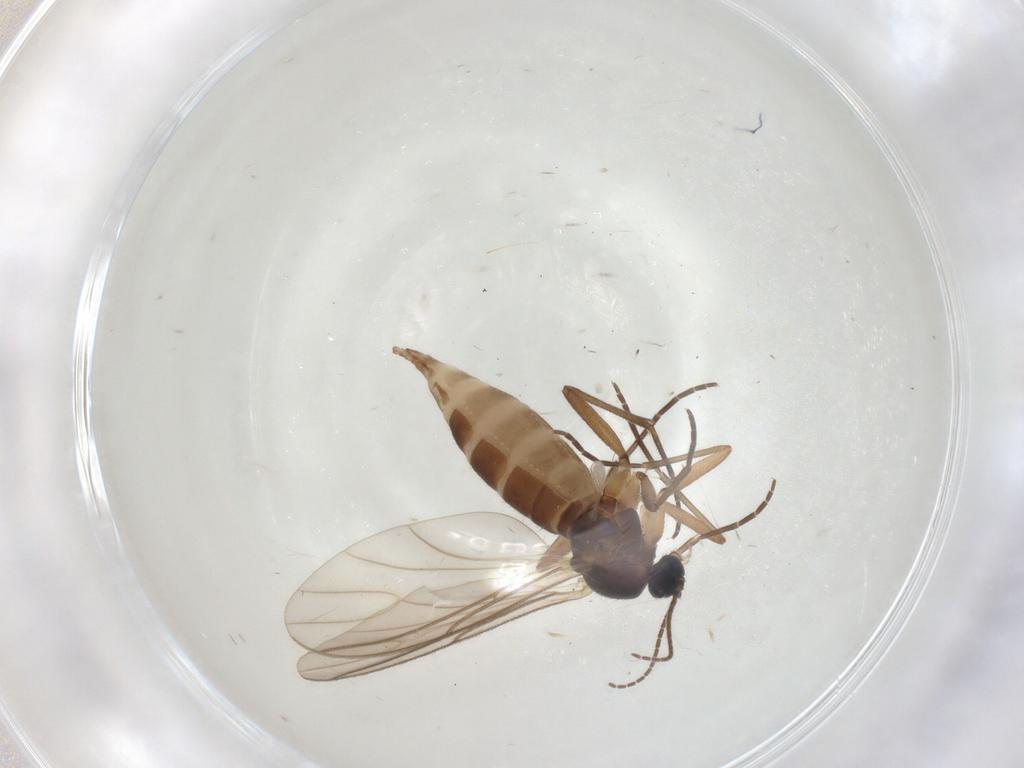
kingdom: Animalia
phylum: Arthropoda
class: Insecta
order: Diptera
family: Sciaridae
